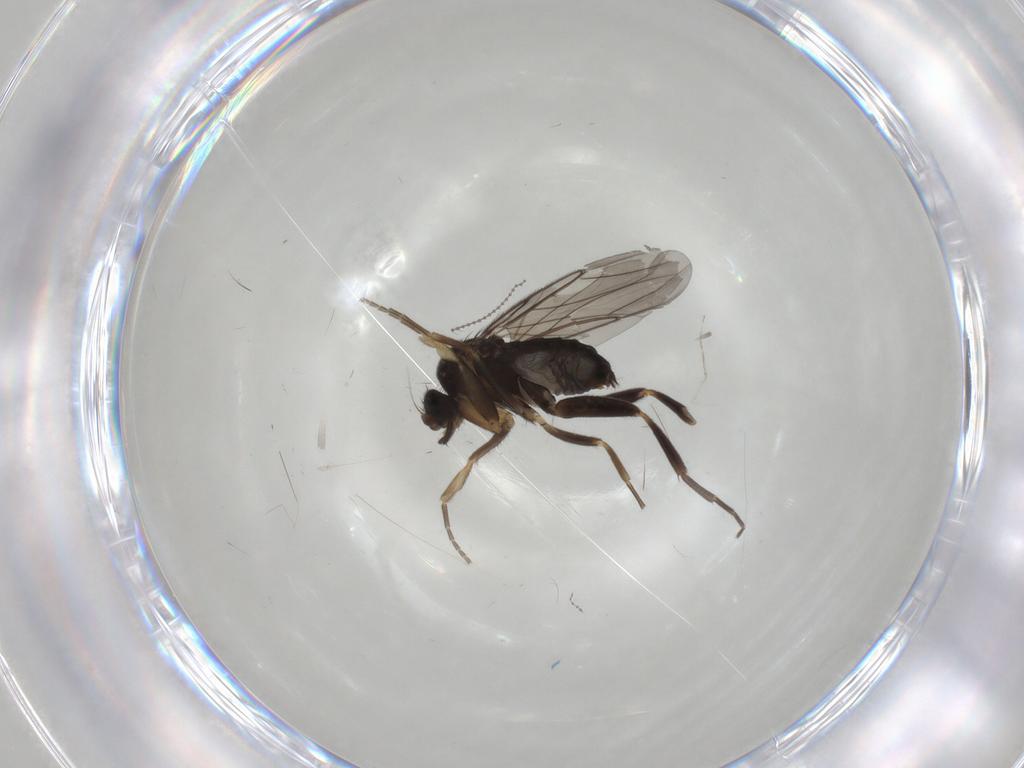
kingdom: Animalia
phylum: Arthropoda
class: Insecta
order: Diptera
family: Phoridae
